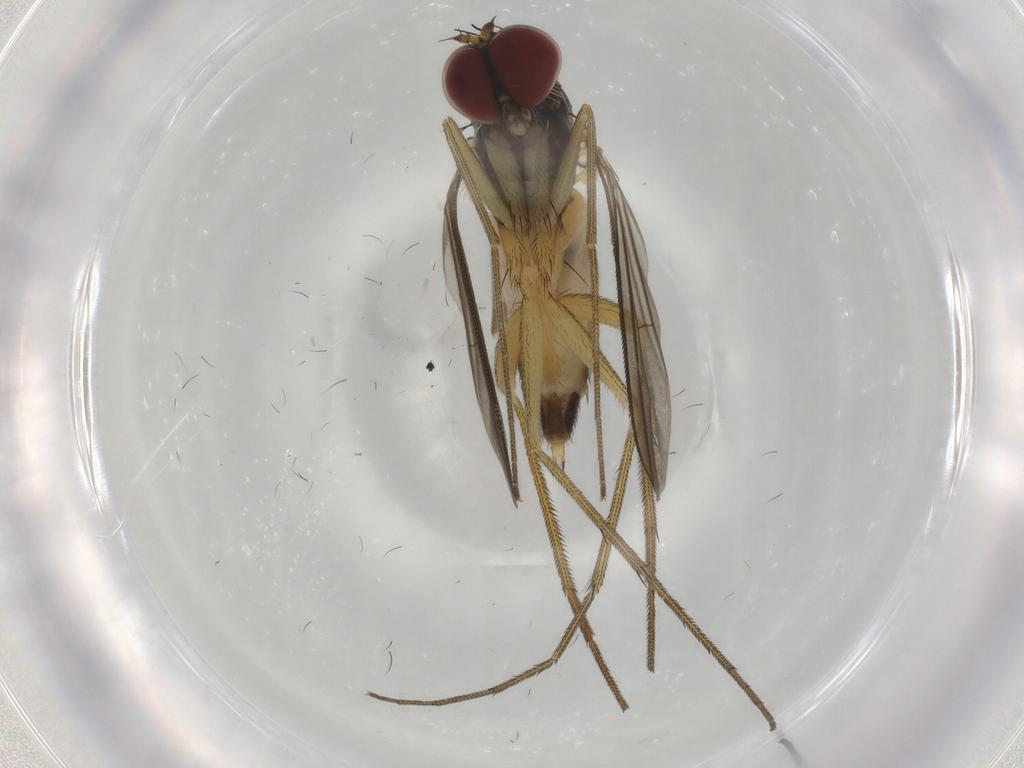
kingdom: Animalia
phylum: Arthropoda
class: Insecta
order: Diptera
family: Dolichopodidae
